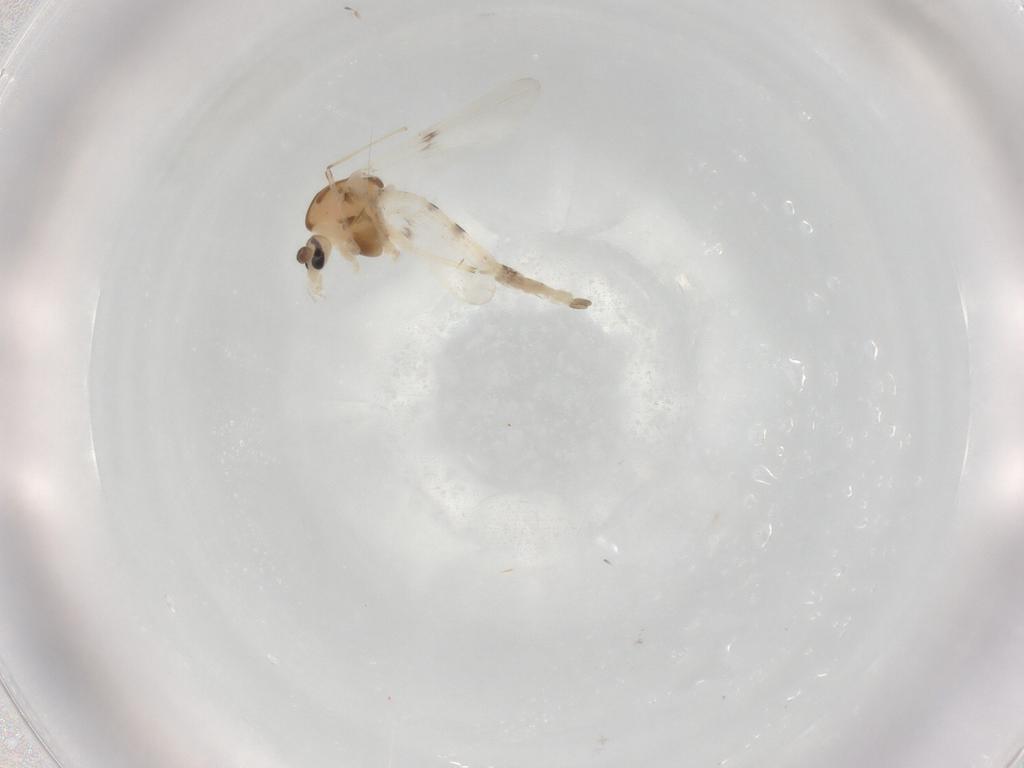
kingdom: Animalia
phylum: Arthropoda
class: Insecta
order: Diptera
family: Chironomidae
